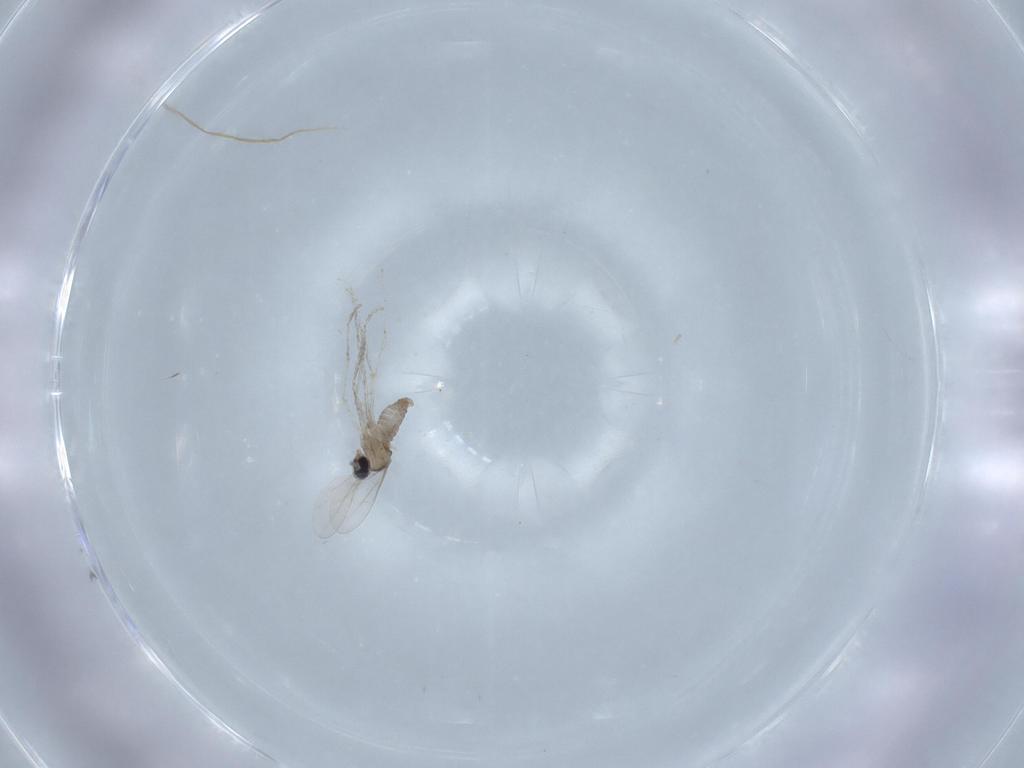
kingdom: Animalia
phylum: Arthropoda
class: Insecta
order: Diptera
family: Phoridae
